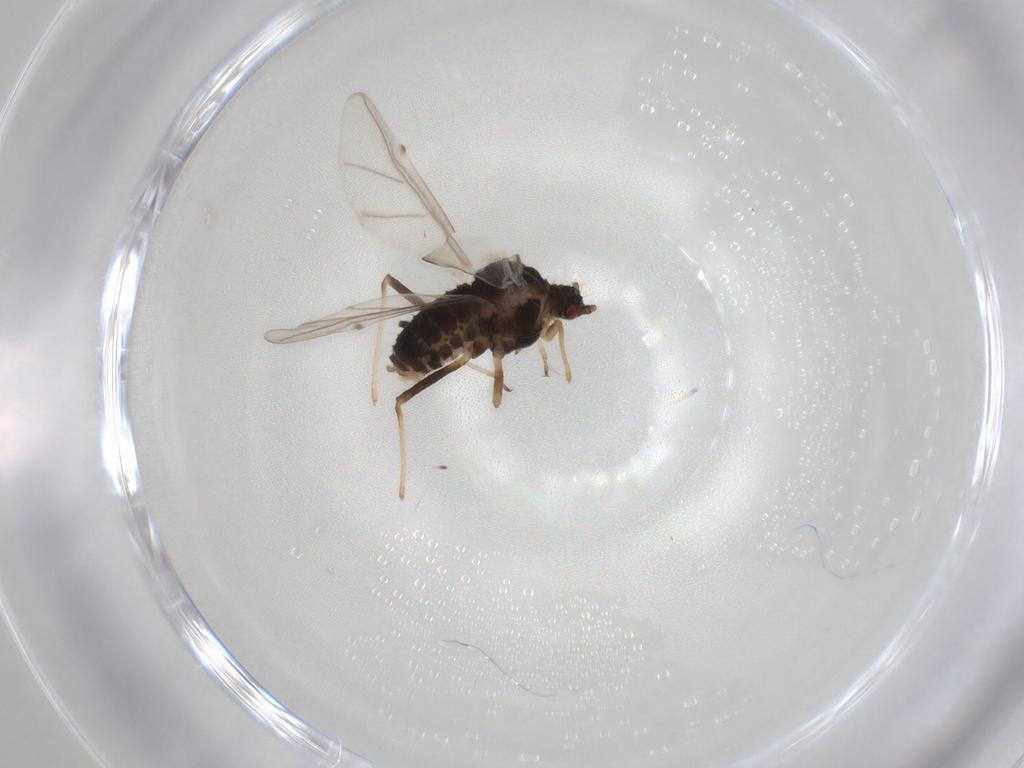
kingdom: Animalia
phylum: Arthropoda
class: Insecta
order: Hemiptera
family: Aphididae
